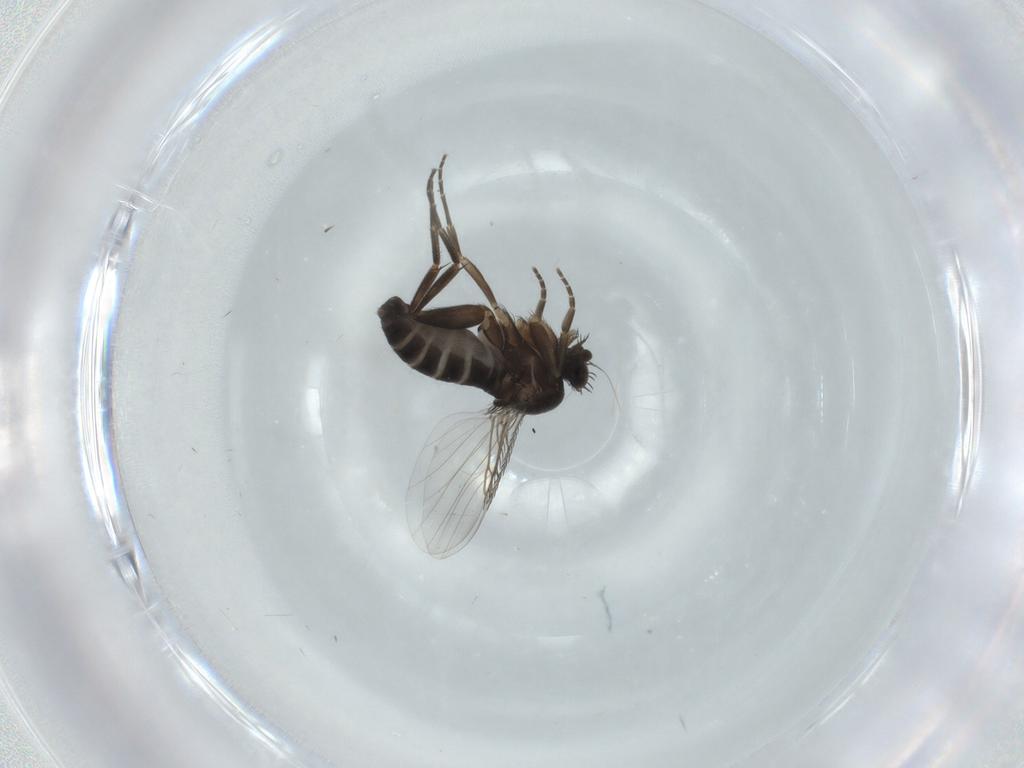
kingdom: Animalia
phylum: Arthropoda
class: Insecta
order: Diptera
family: Phoridae
